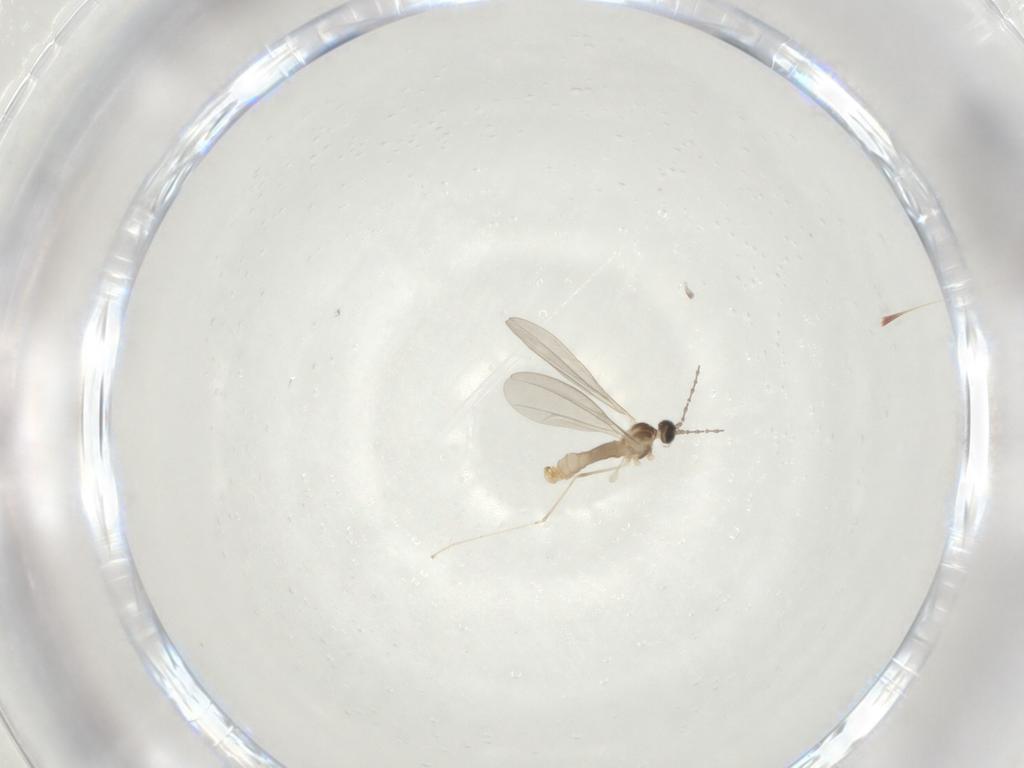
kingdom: Animalia
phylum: Arthropoda
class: Insecta
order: Diptera
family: Cecidomyiidae
